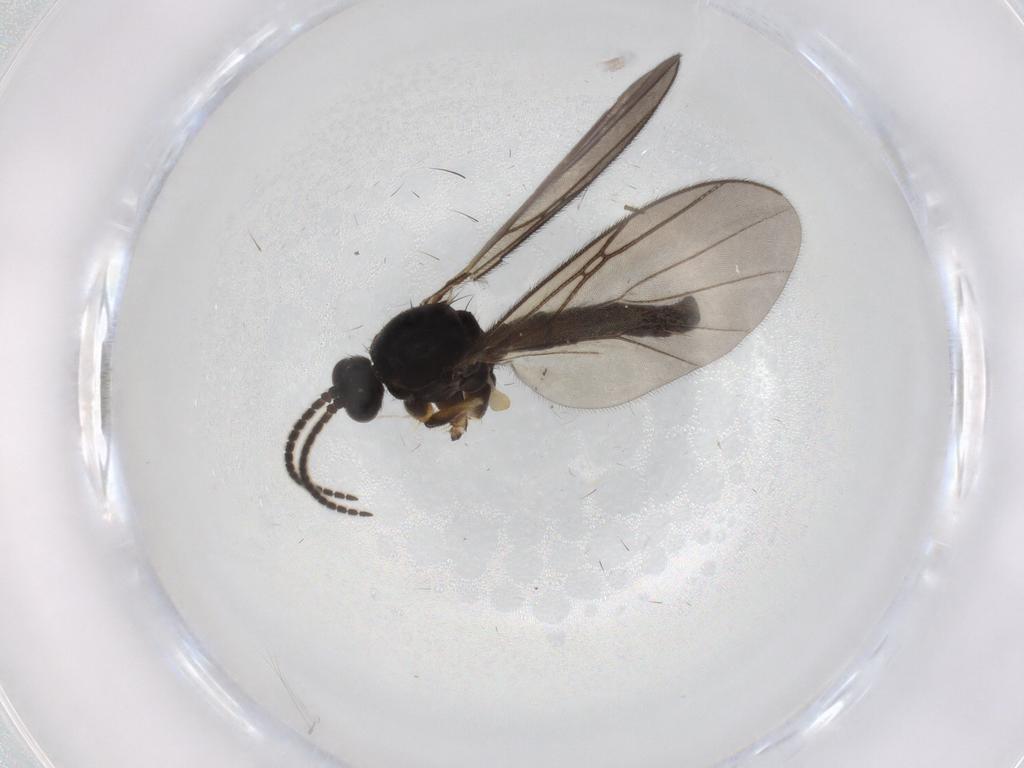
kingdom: Animalia
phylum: Arthropoda
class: Insecta
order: Diptera
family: Mycetophilidae
